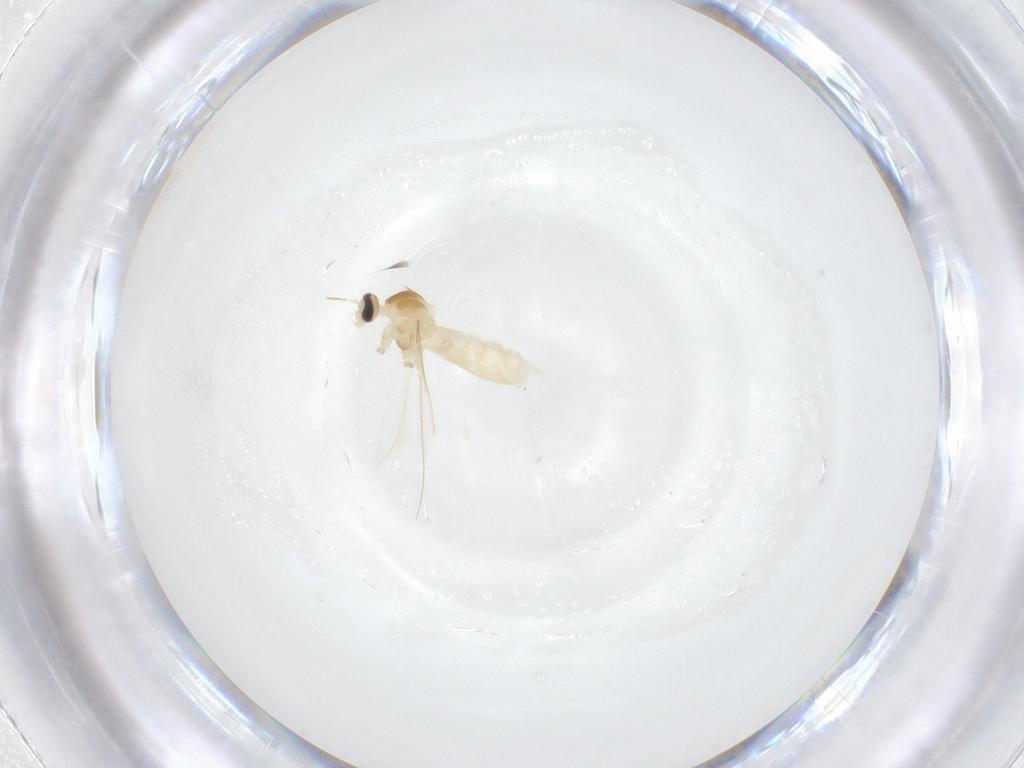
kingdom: Animalia
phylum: Arthropoda
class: Insecta
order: Diptera
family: Cecidomyiidae
